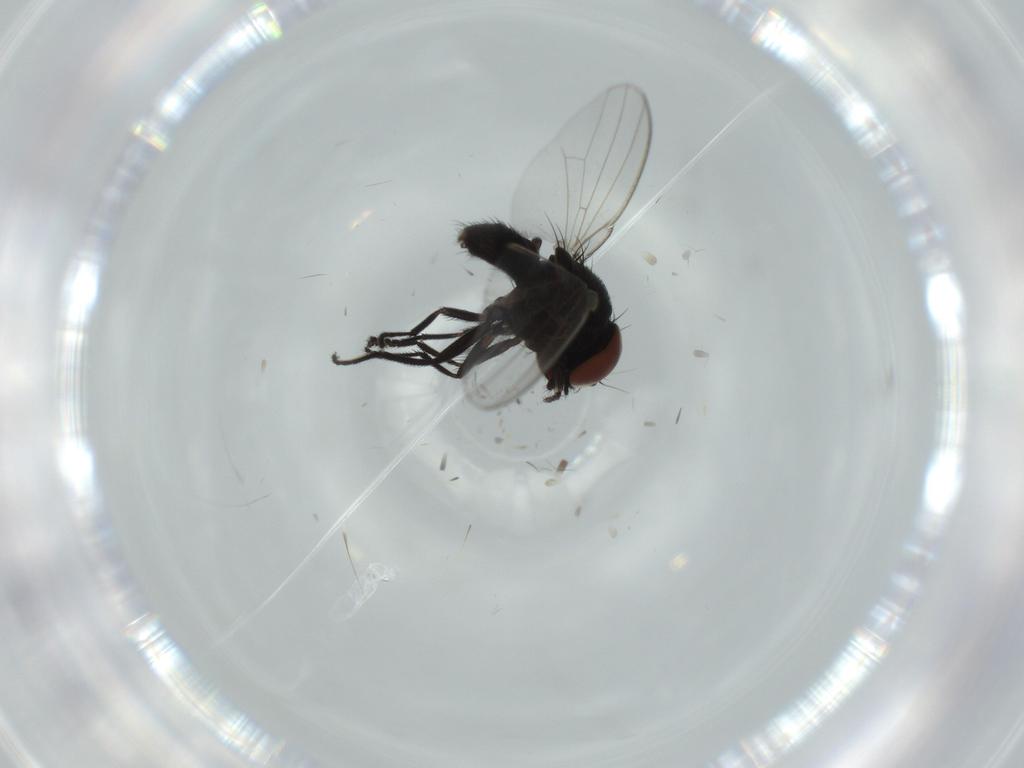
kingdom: Animalia
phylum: Arthropoda
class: Insecta
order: Diptera
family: Milichiidae
